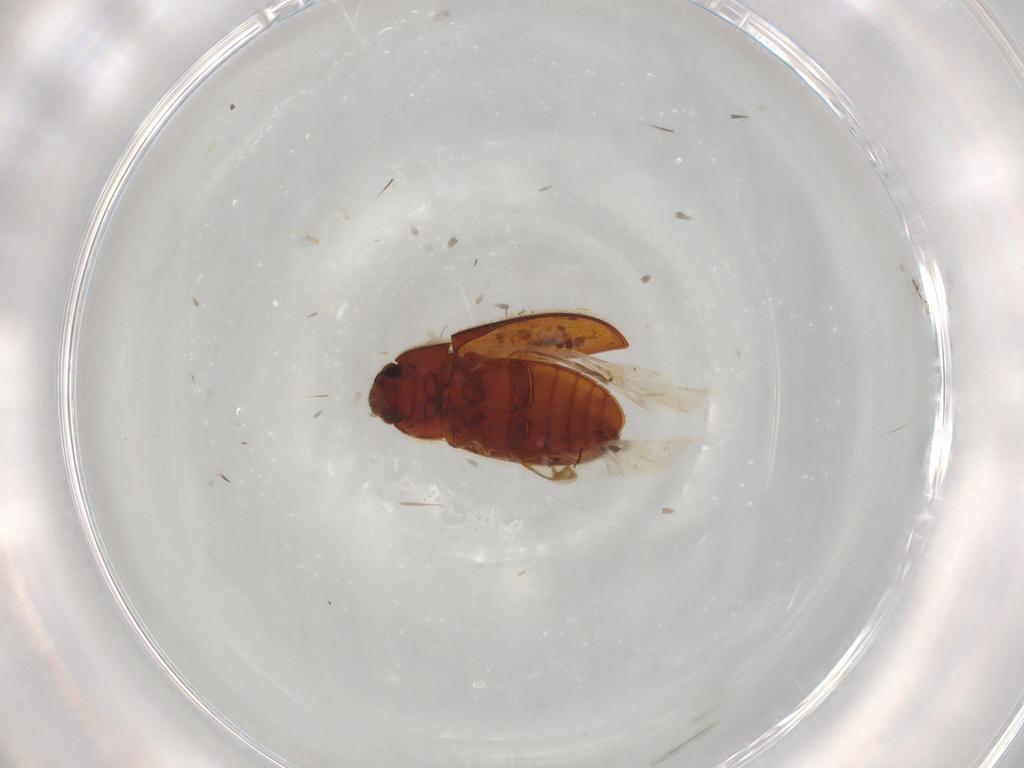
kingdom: Animalia
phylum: Arthropoda
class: Insecta
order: Coleoptera
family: Biphyllidae
